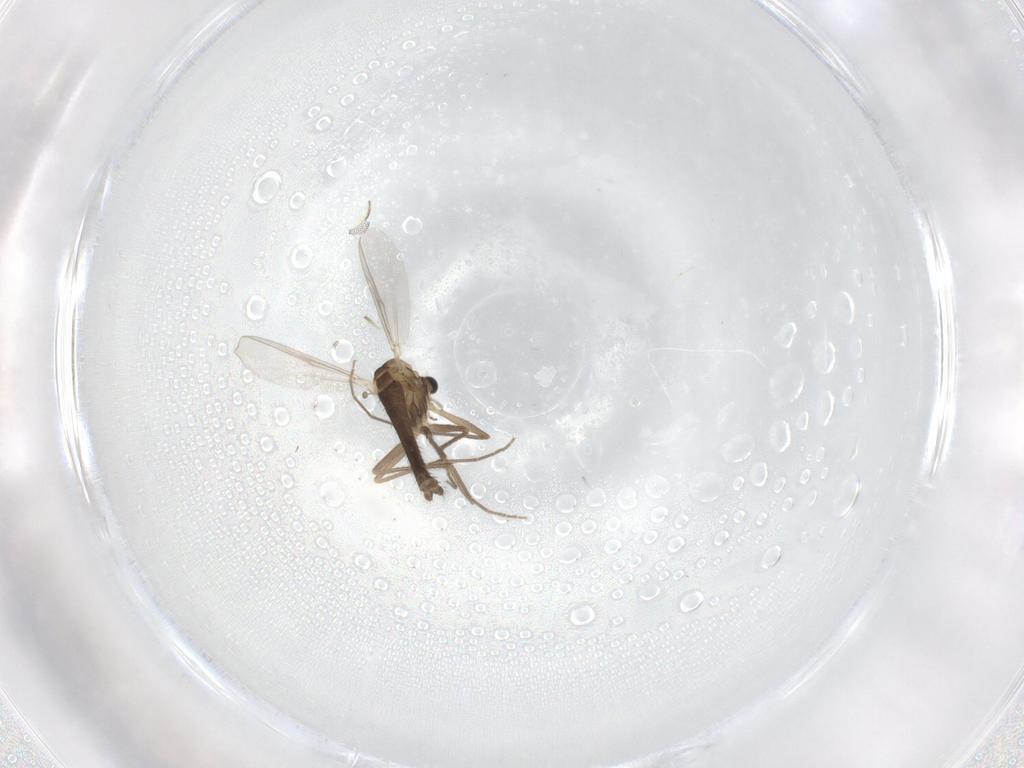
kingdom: Animalia
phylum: Arthropoda
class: Insecta
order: Diptera
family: Chironomidae
